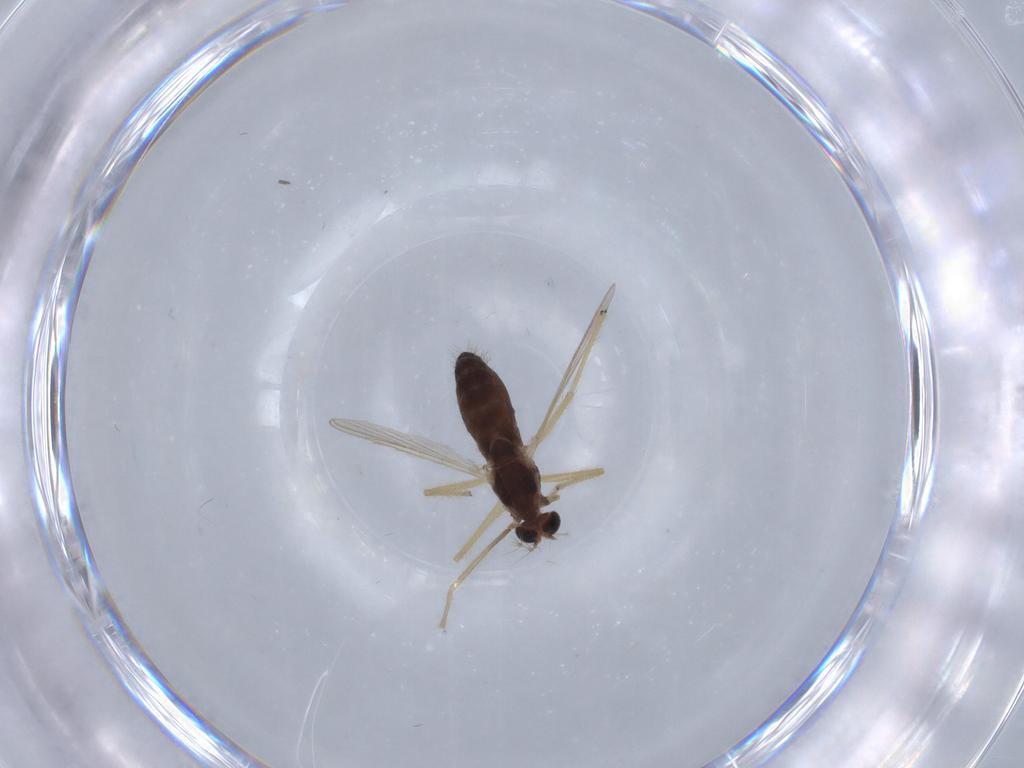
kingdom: Animalia
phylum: Arthropoda
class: Insecta
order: Diptera
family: Chironomidae
